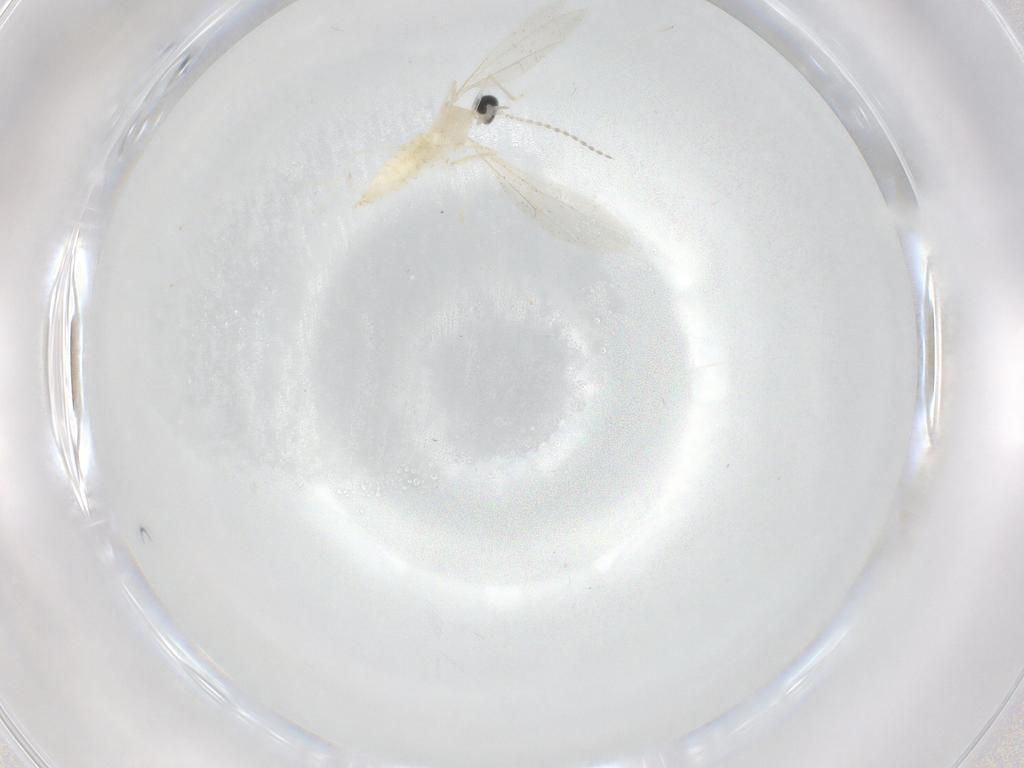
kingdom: Animalia
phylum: Arthropoda
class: Insecta
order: Diptera
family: Cecidomyiidae
